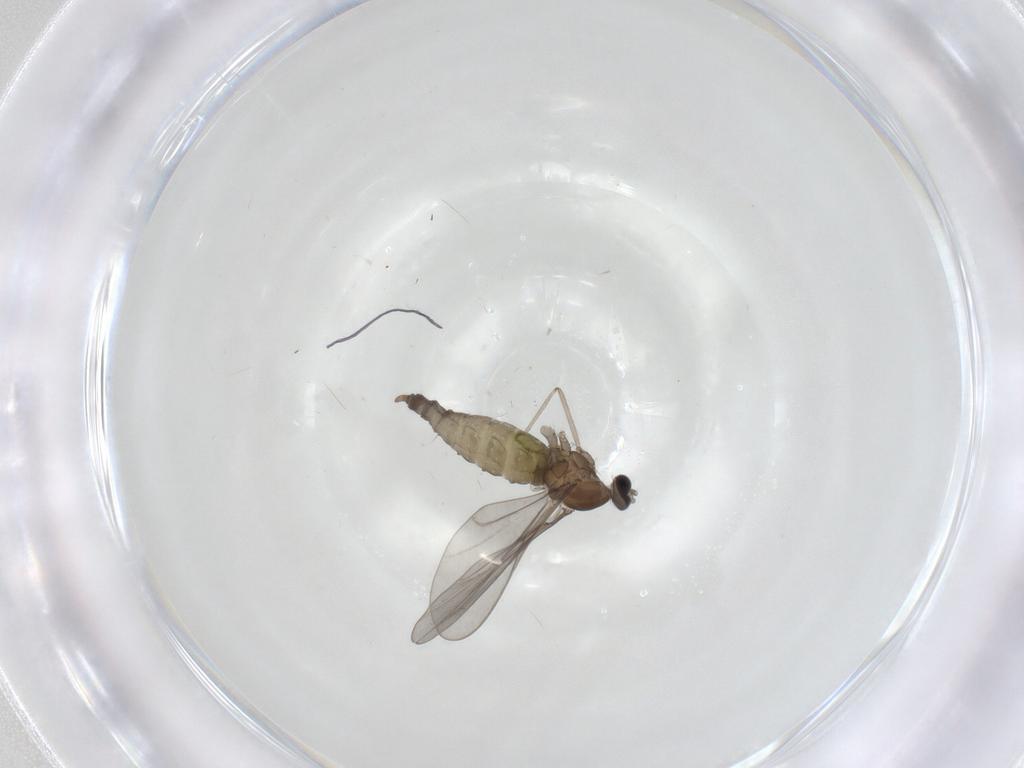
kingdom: Animalia
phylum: Arthropoda
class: Insecta
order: Diptera
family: Cecidomyiidae
